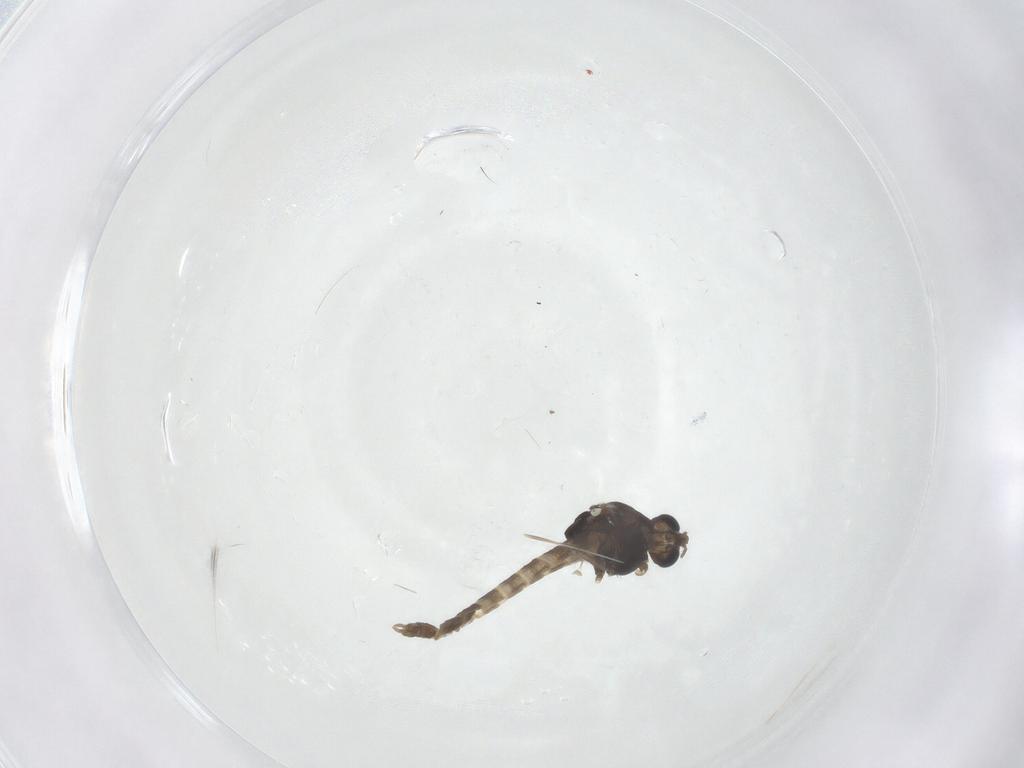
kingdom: Animalia
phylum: Arthropoda
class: Insecta
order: Diptera
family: Chironomidae
